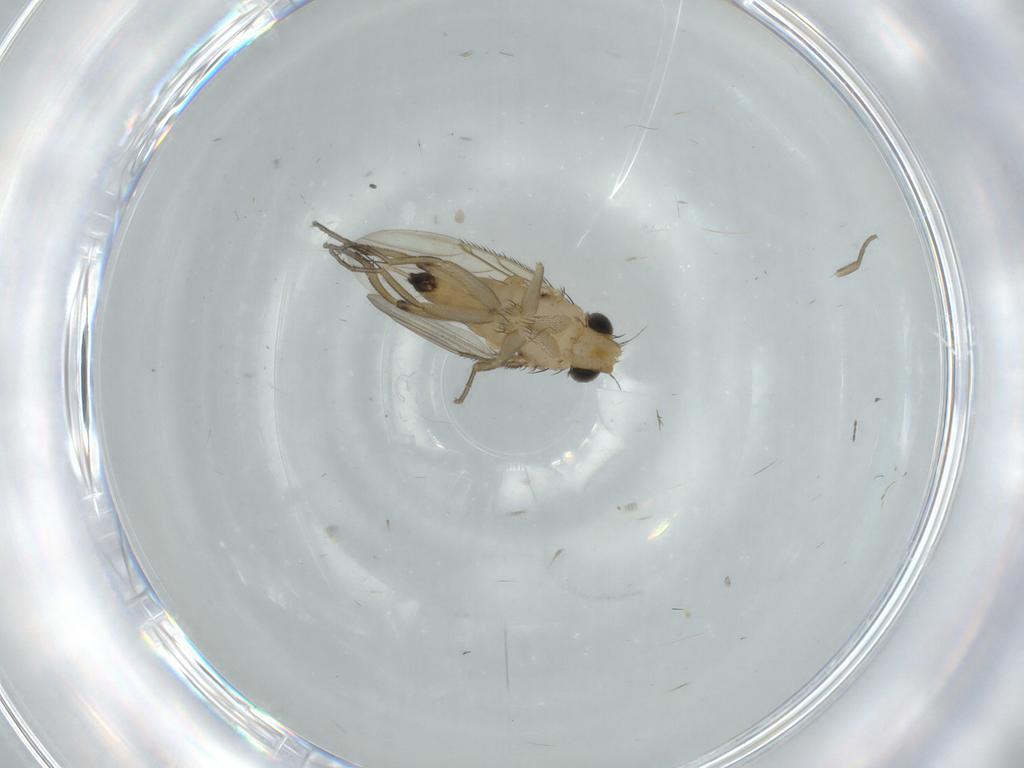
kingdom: Animalia
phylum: Arthropoda
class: Insecta
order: Diptera
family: Phoridae
